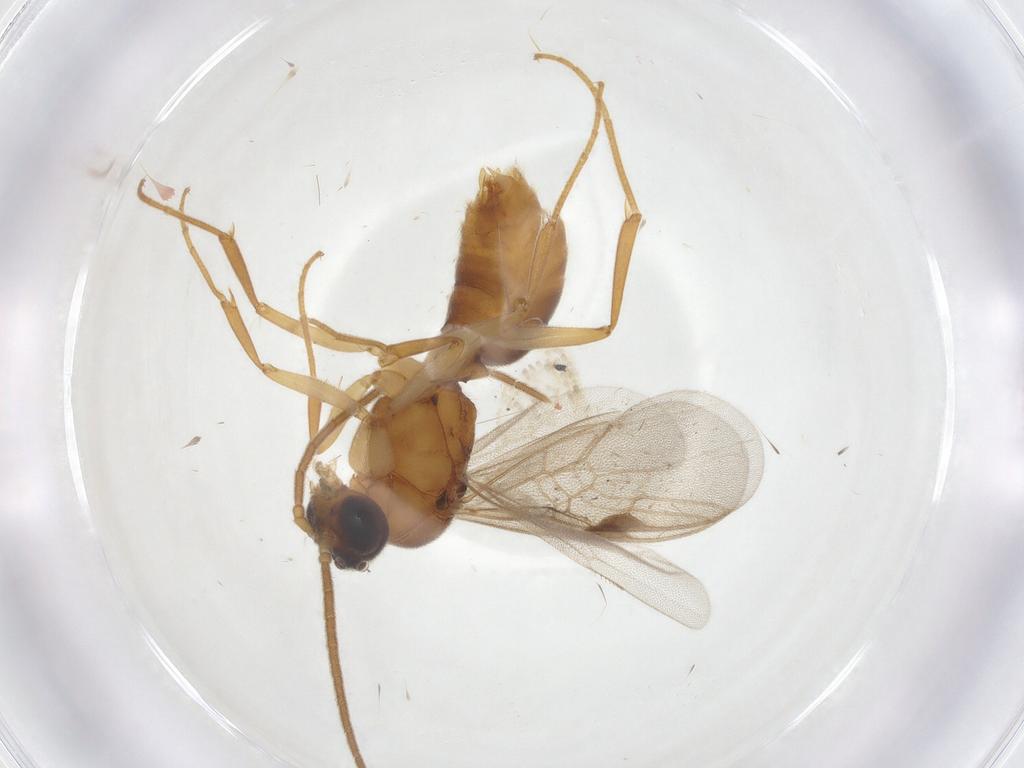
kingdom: Animalia
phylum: Arthropoda
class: Insecta
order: Hymenoptera
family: Formicidae
